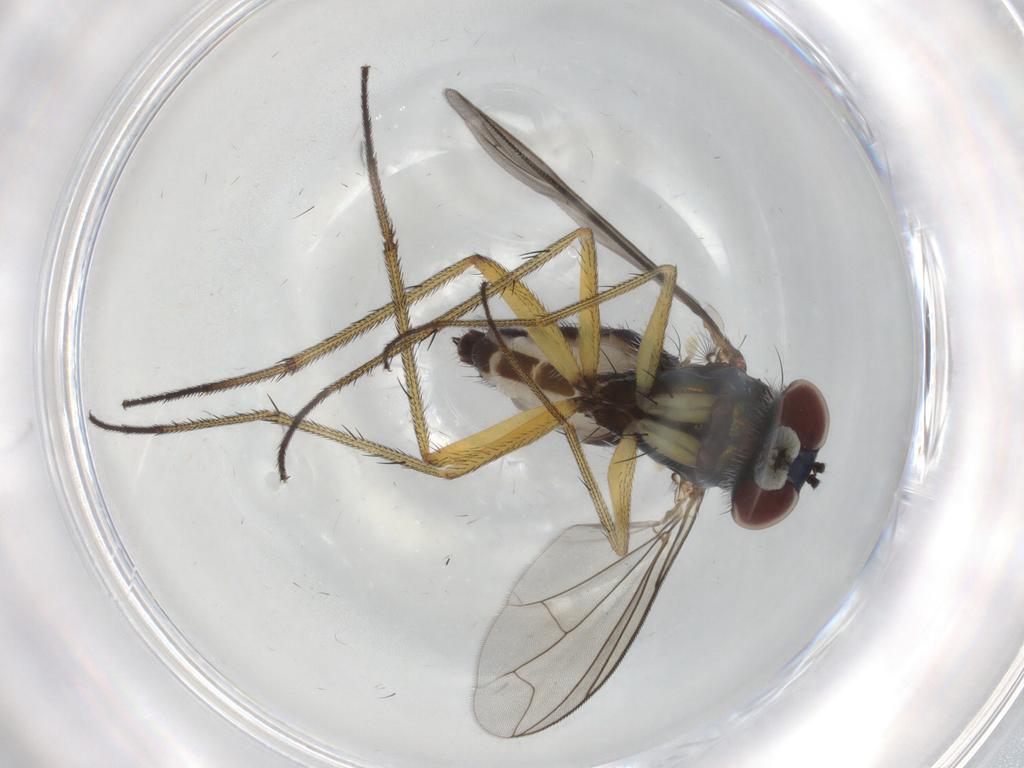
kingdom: Animalia
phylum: Arthropoda
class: Insecta
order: Diptera
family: Dolichopodidae
